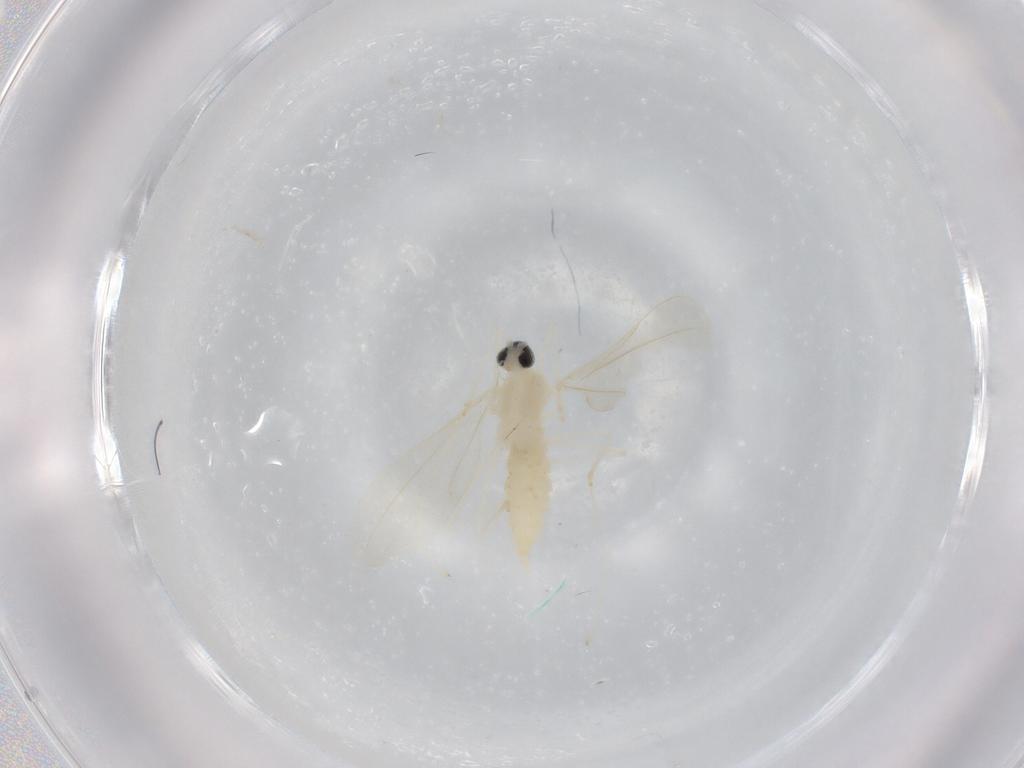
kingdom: Animalia
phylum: Arthropoda
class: Insecta
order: Diptera
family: Cecidomyiidae
